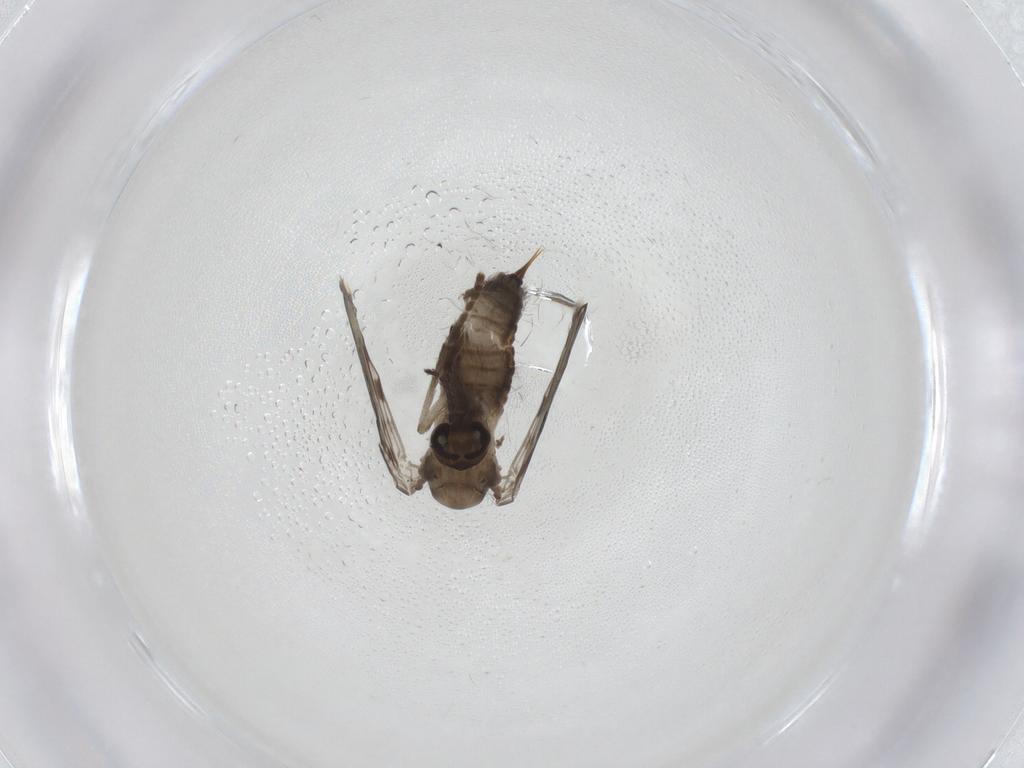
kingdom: Animalia
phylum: Arthropoda
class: Insecta
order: Diptera
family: Psychodidae
